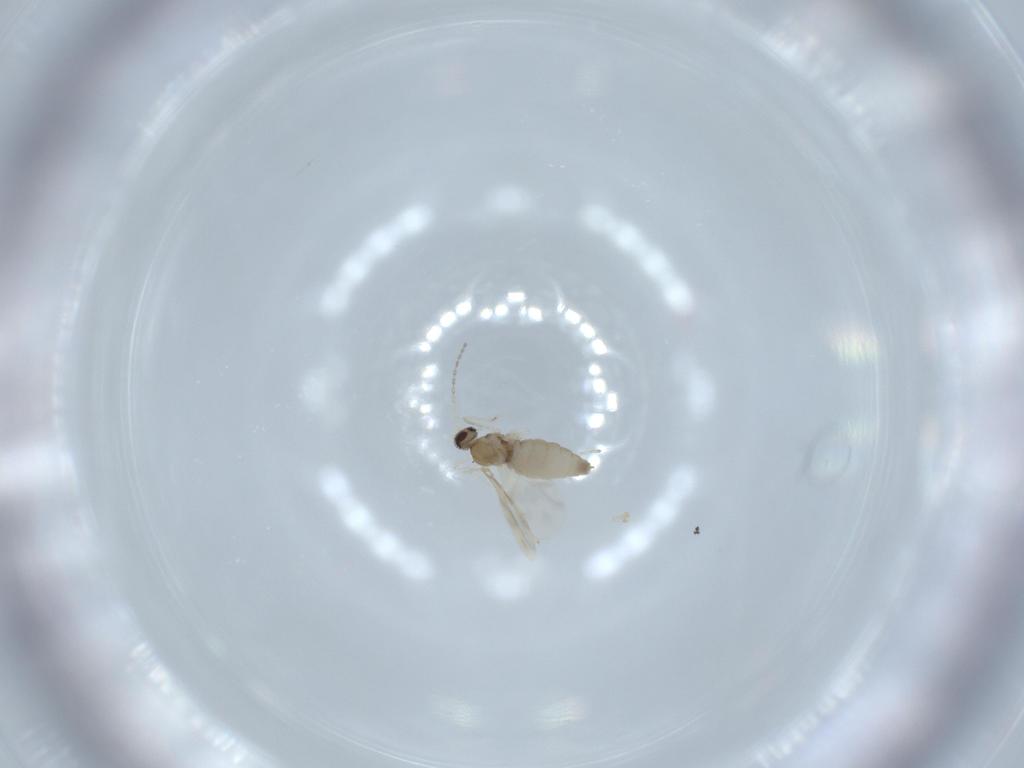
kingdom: Animalia
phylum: Arthropoda
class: Insecta
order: Diptera
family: Cecidomyiidae
